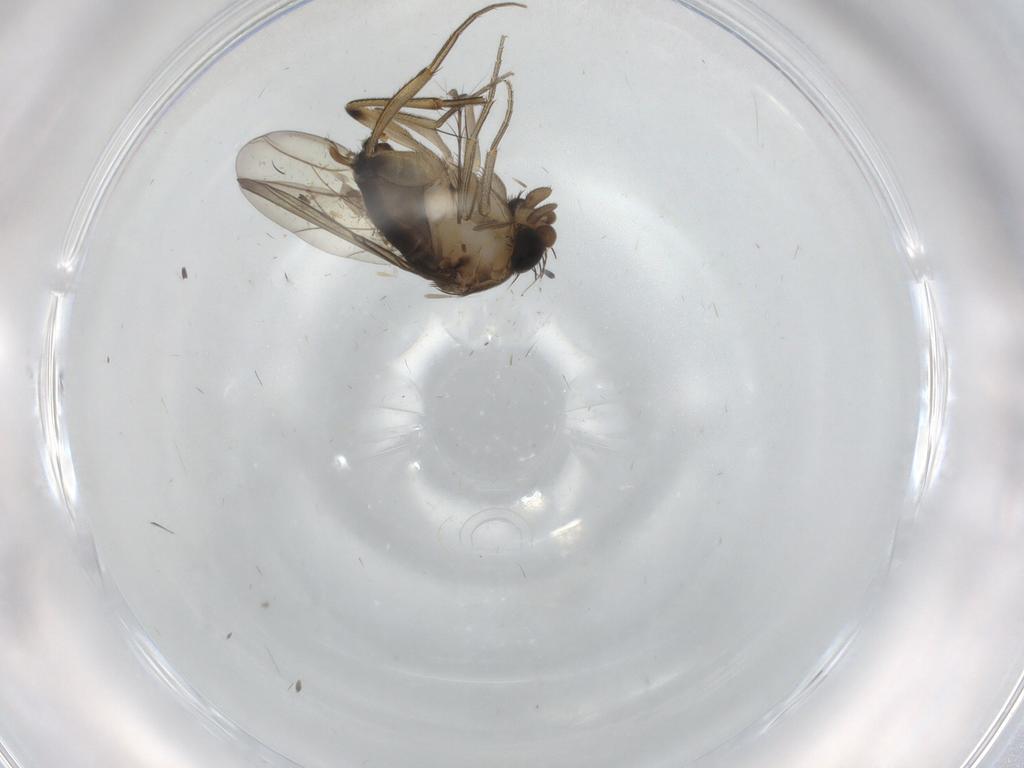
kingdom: Animalia
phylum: Arthropoda
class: Insecta
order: Diptera
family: Phoridae
